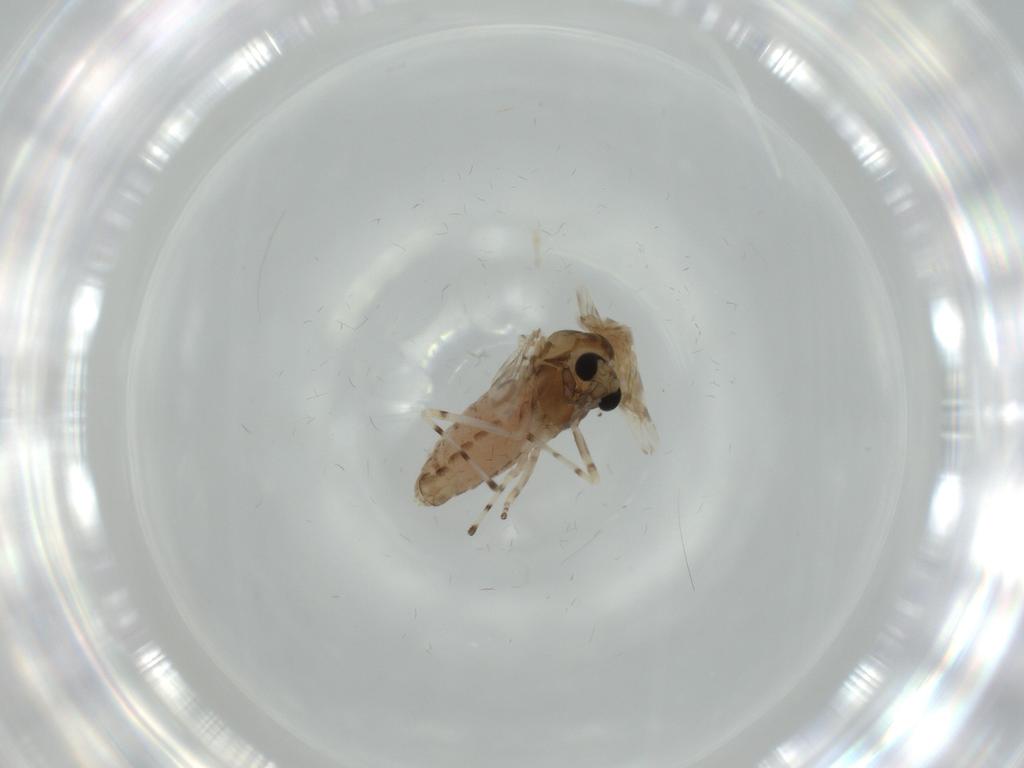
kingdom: Animalia
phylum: Arthropoda
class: Insecta
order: Diptera
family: Chironomidae
